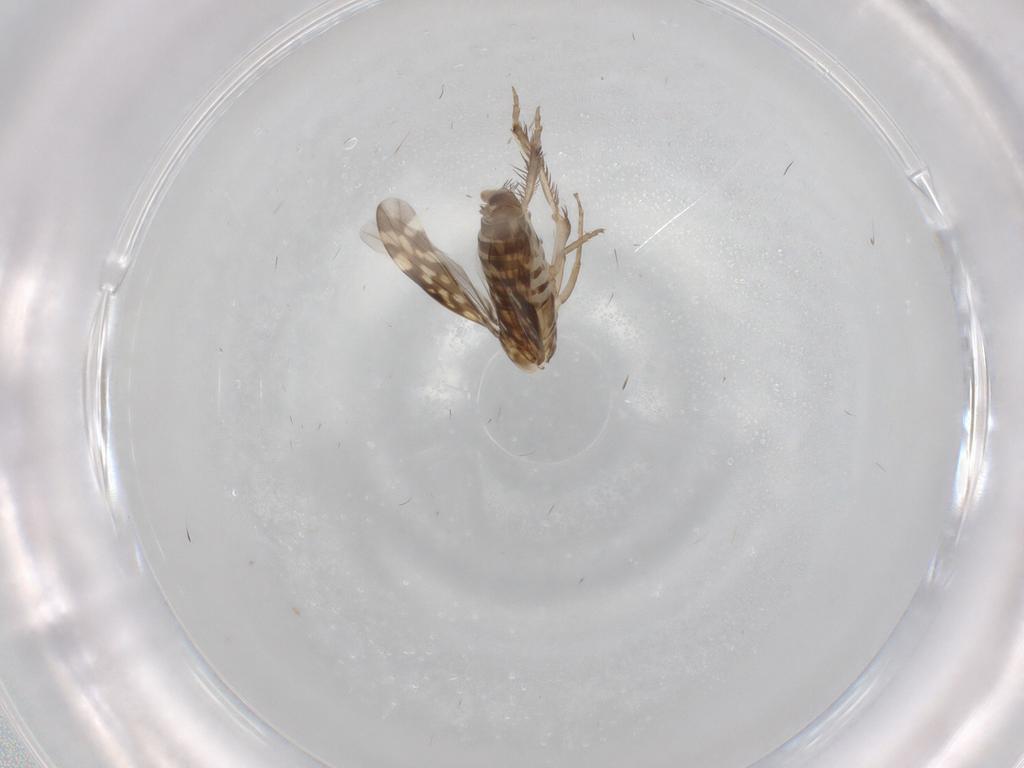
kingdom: Animalia
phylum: Arthropoda
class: Insecta
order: Hemiptera
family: Cicadellidae
